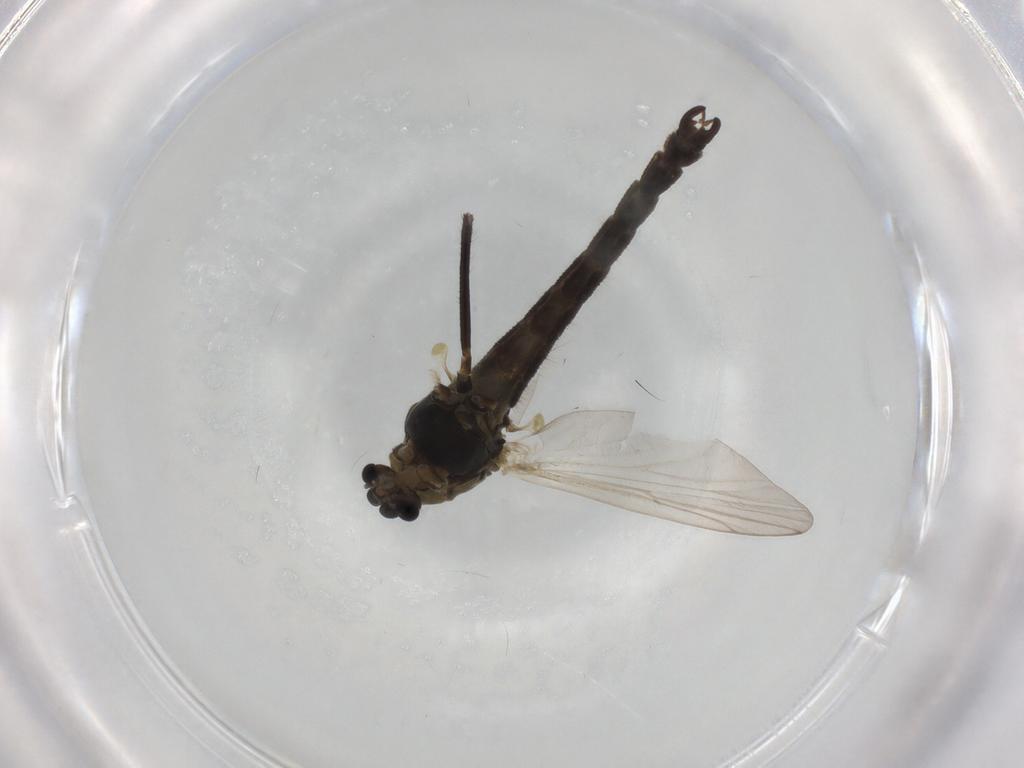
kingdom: Animalia
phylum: Arthropoda
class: Insecta
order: Diptera
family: Dolichopodidae
